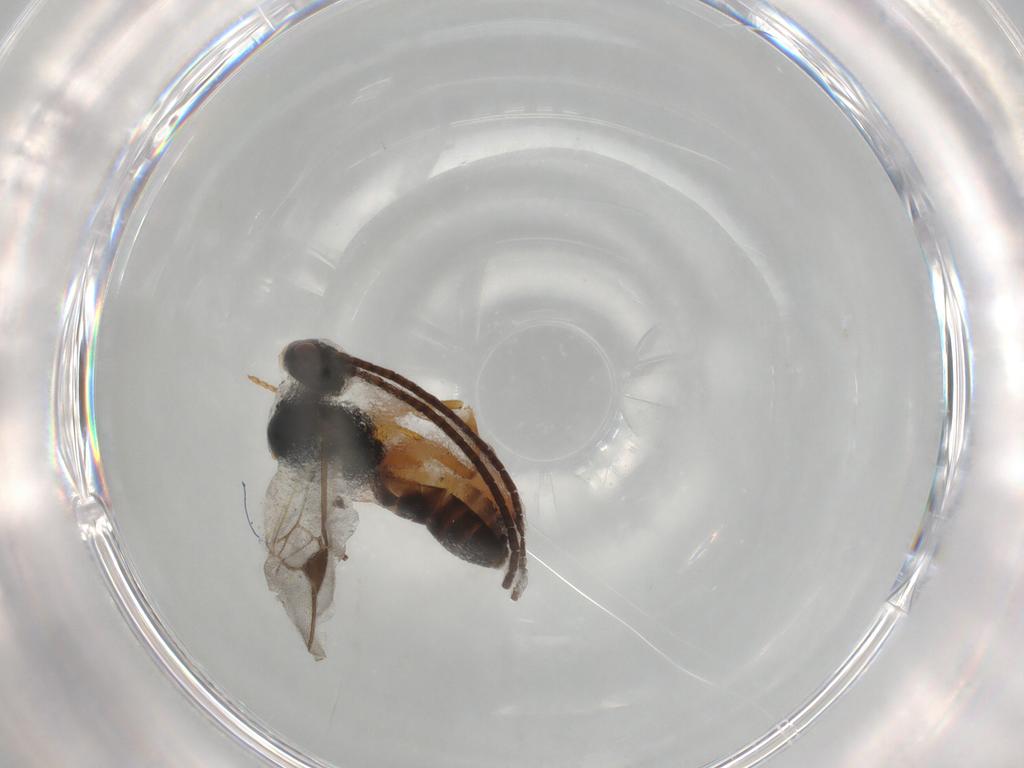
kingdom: Animalia
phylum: Arthropoda
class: Insecta
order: Hymenoptera
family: Braconidae
